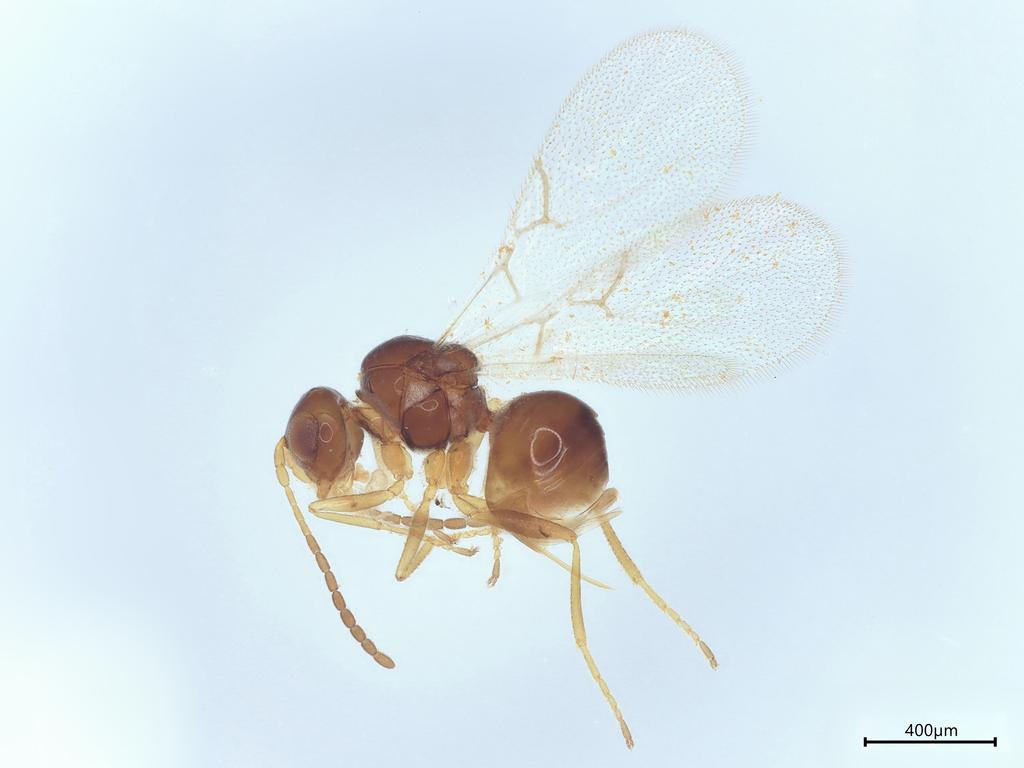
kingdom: Animalia
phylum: Arthropoda
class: Insecta
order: Hymenoptera
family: Figitidae
